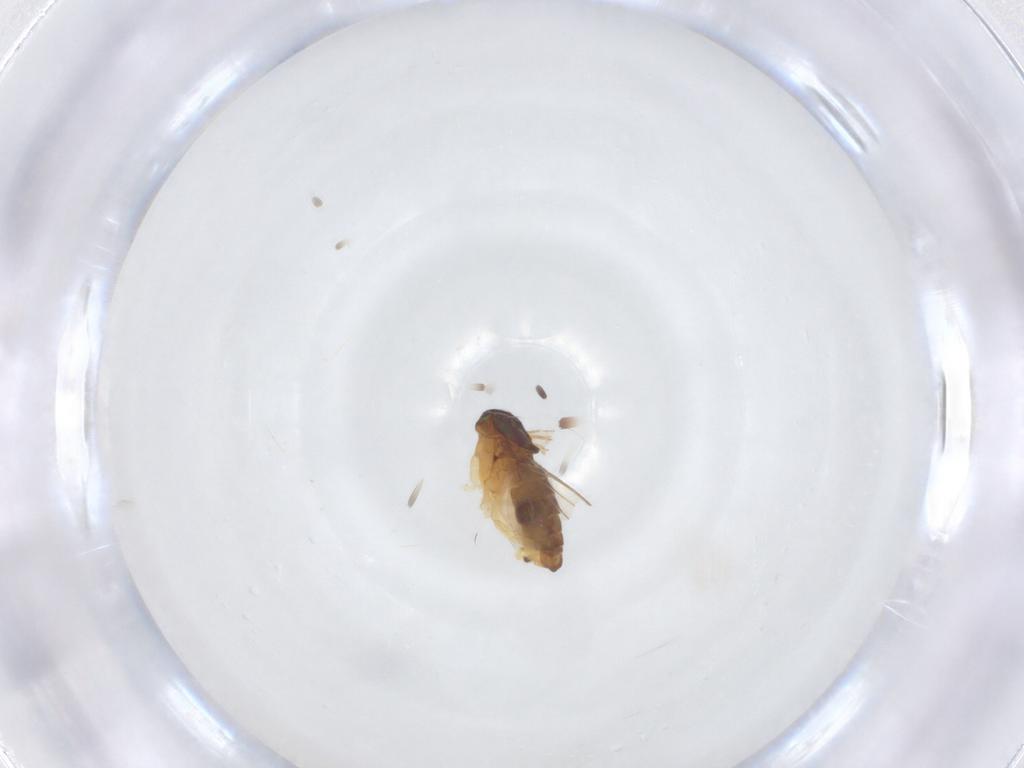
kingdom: Animalia
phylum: Arthropoda
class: Insecta
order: Diptera
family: Dolichopodidae
